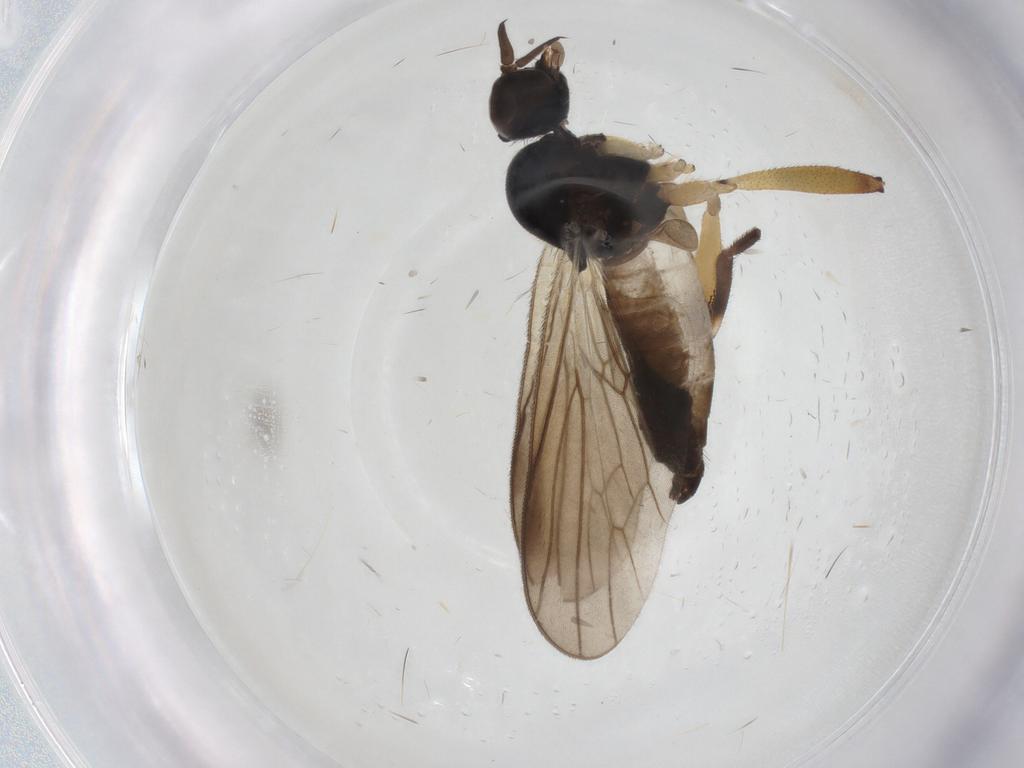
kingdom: Animalia
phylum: Arthropoda
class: Insecta
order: Diptera
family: Hybotidae
